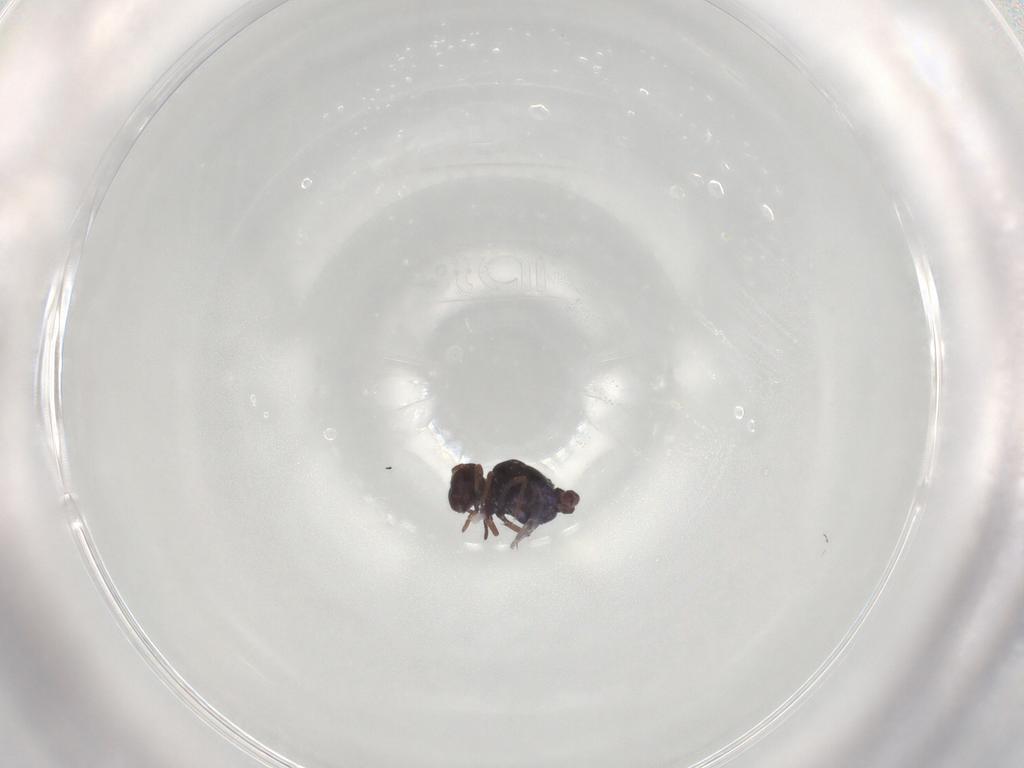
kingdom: Animalia
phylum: Arthropoda
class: Collembola
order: Symphypleona
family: Bourletiellidae
